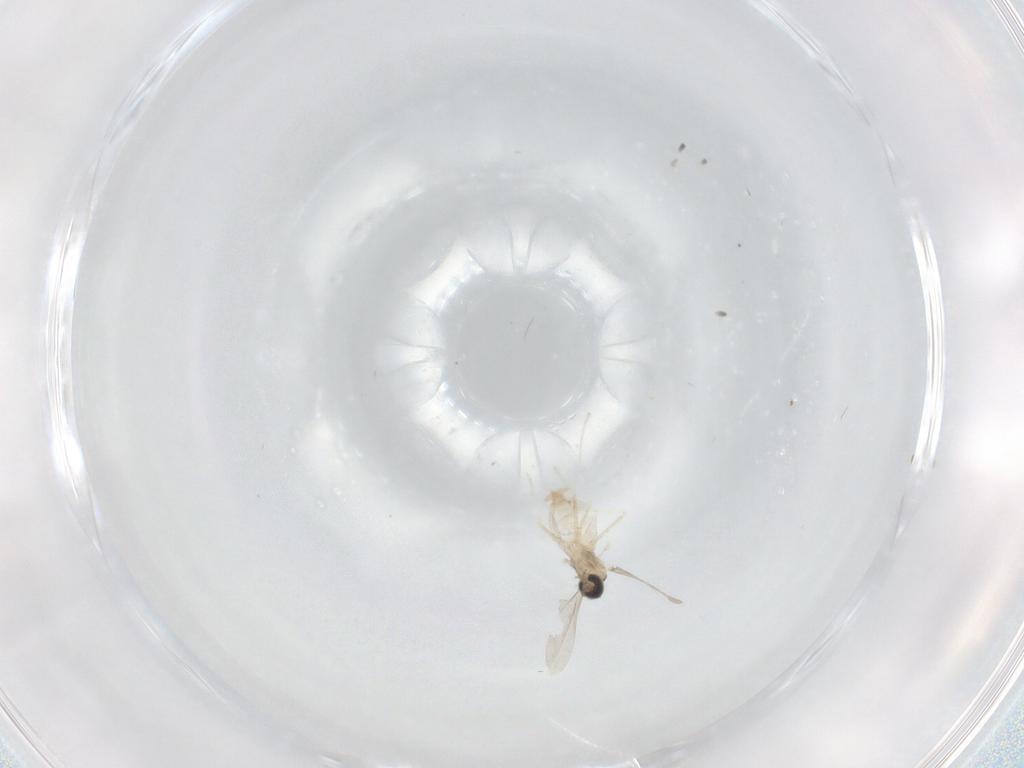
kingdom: Animalia
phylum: Arthropoda
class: Insecta
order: Diptera
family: Cecidomyiidae
